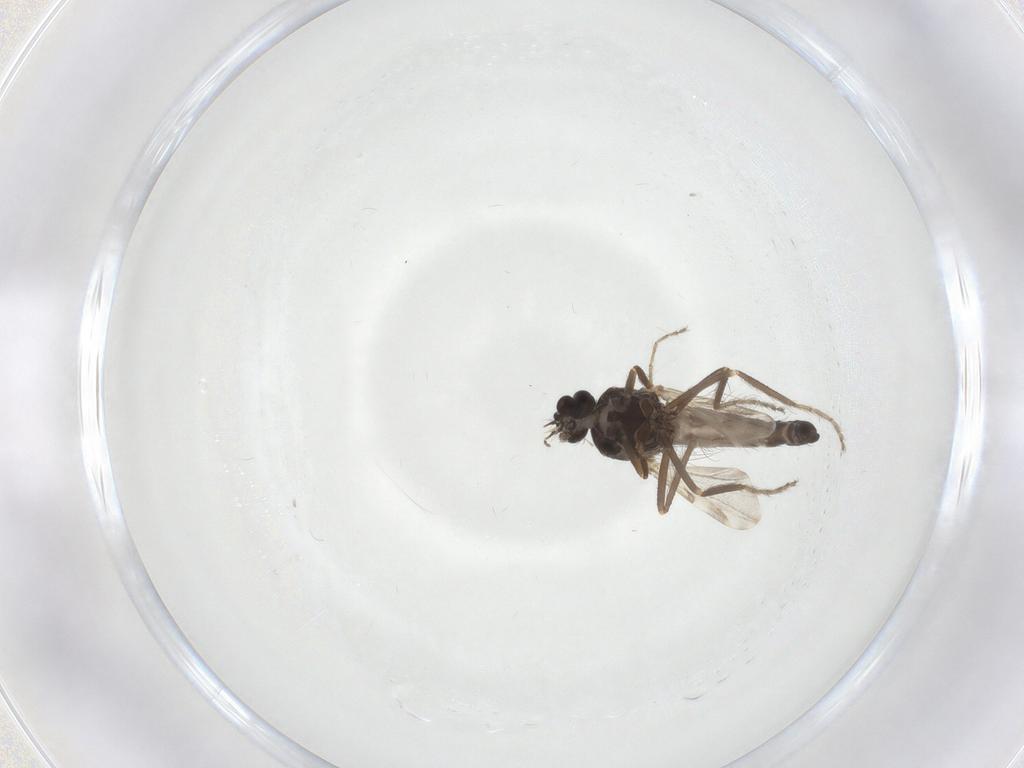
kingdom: Animalia
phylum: Arthropoda
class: Insecta
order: Diptera
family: Ceratopogonidae
